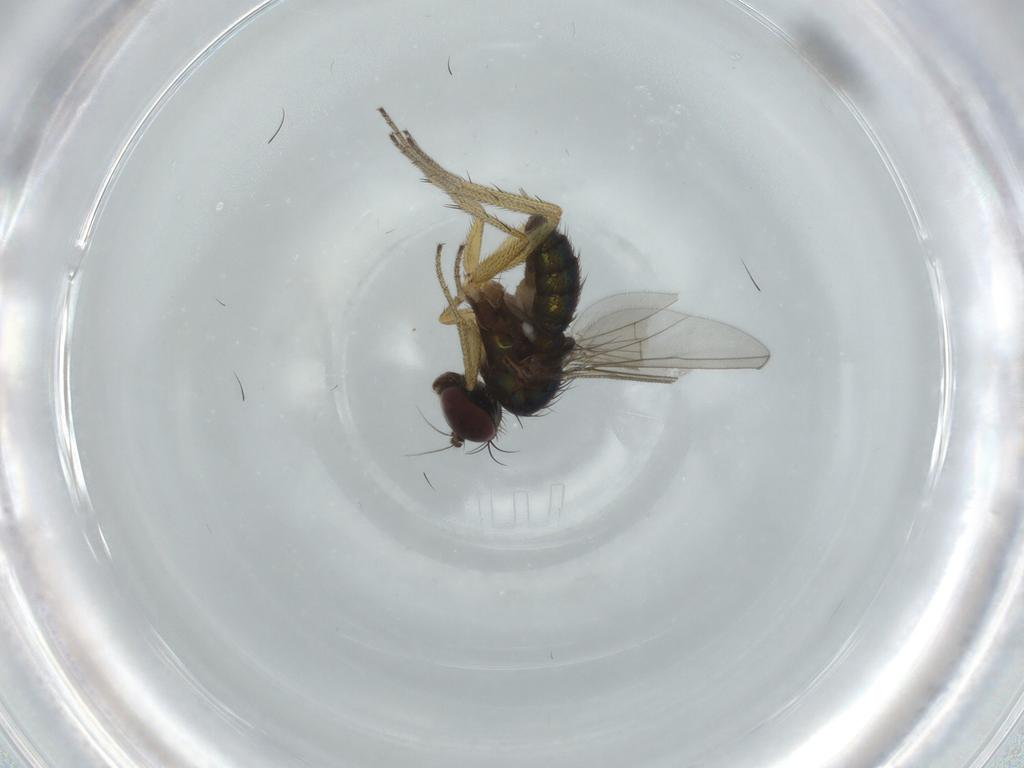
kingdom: Animalia
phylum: Arthropoda
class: Insecta
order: Diptera
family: Dolichopodidae
